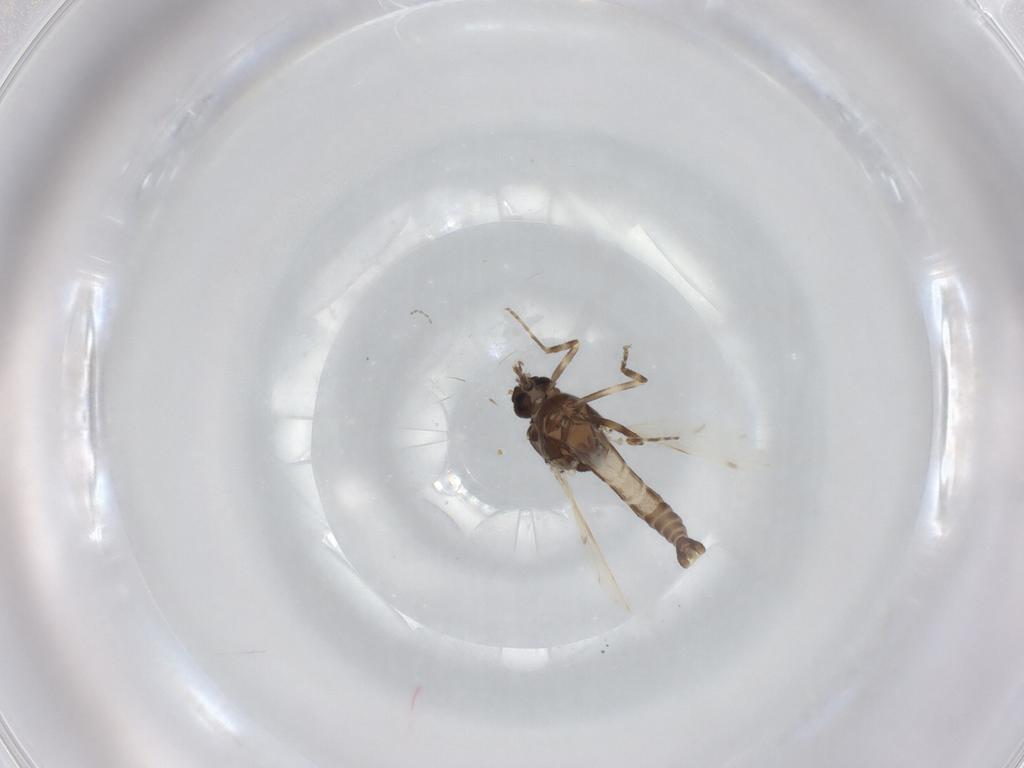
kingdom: Animalia
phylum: Arthropoda
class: Insecta
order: Diptera
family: Ceratopogonidae
